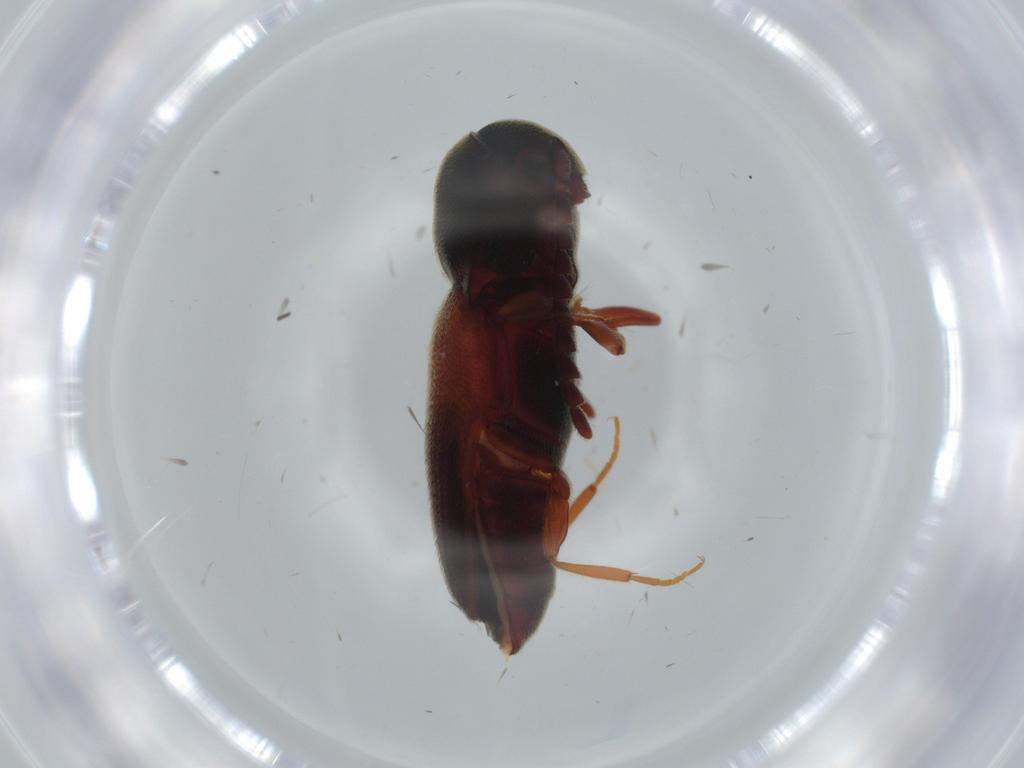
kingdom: Animalia
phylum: Arthropoda
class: Insecta
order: Coleoptera
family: Eucnemidae
